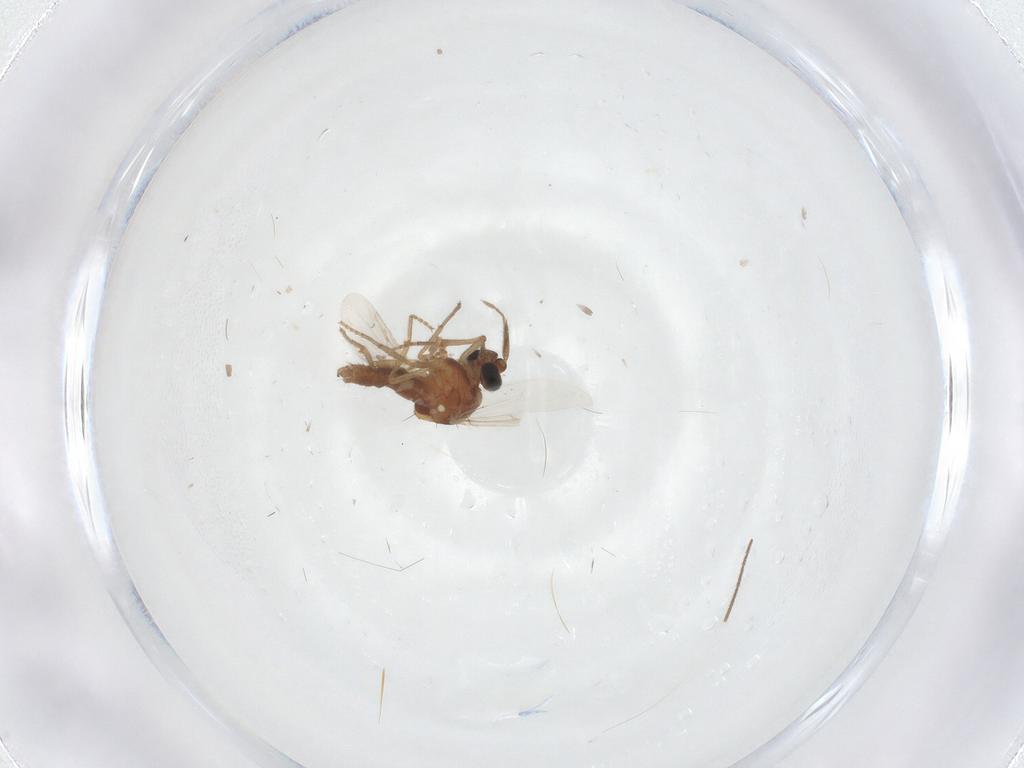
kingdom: Animalia
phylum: Arthropoda
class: Insecta
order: Diptera
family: Ceratopogonidae
